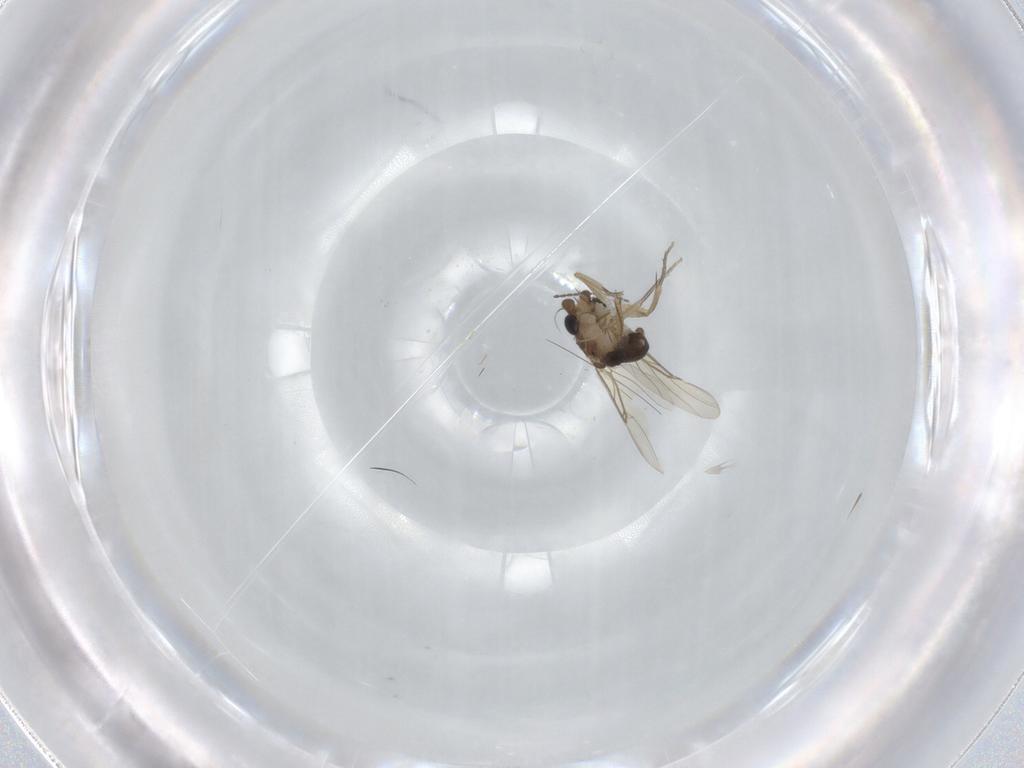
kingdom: Animalia
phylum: Arthropoda
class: Insecta
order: Diptera
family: Phoridae
